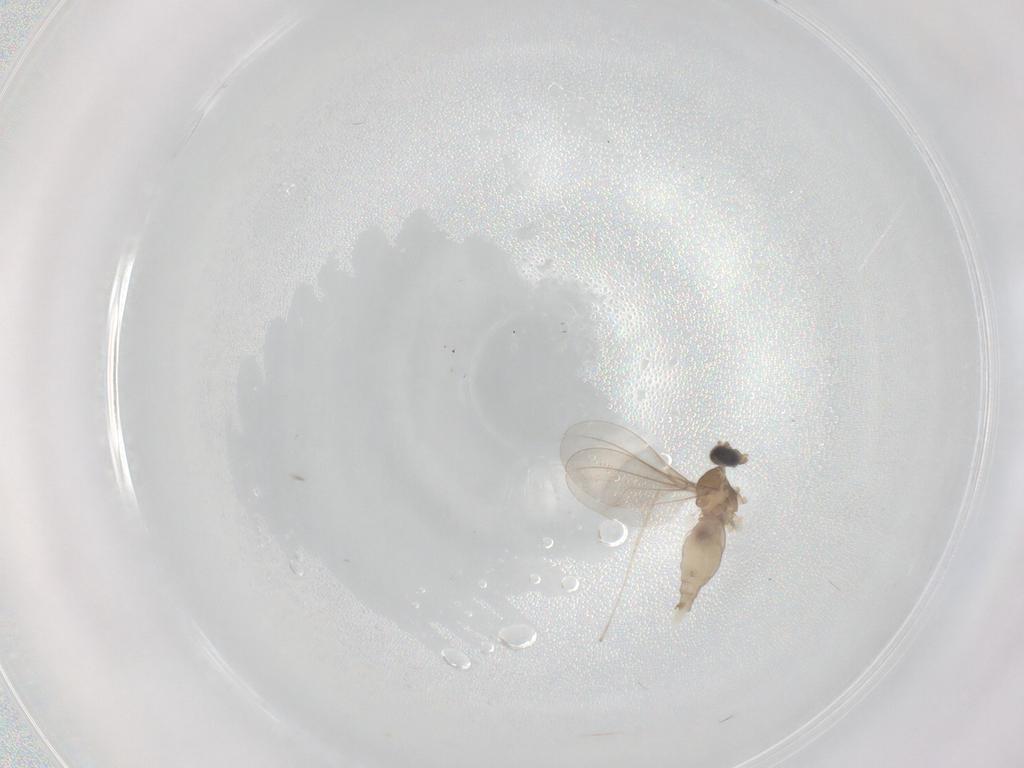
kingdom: Animalia
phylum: Arthropoda
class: Insecta
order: Diptera
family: Cecidomyiidae
